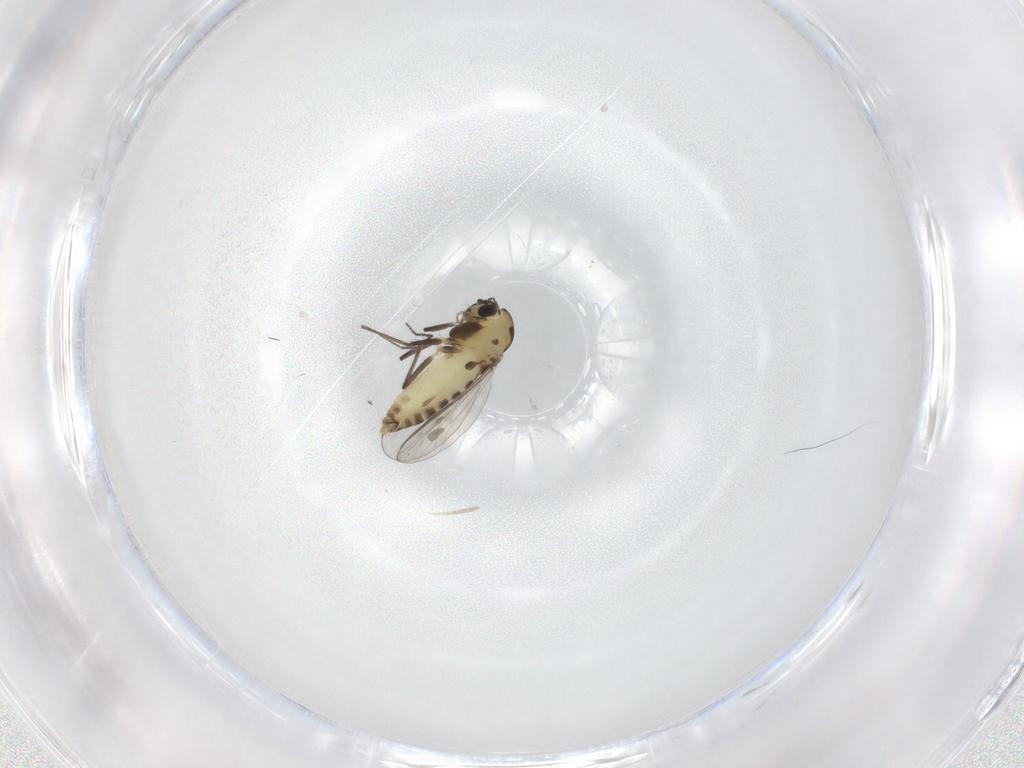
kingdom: Animalia
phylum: Arthropoda
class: Insecta
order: Diptera
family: Chironomidae
